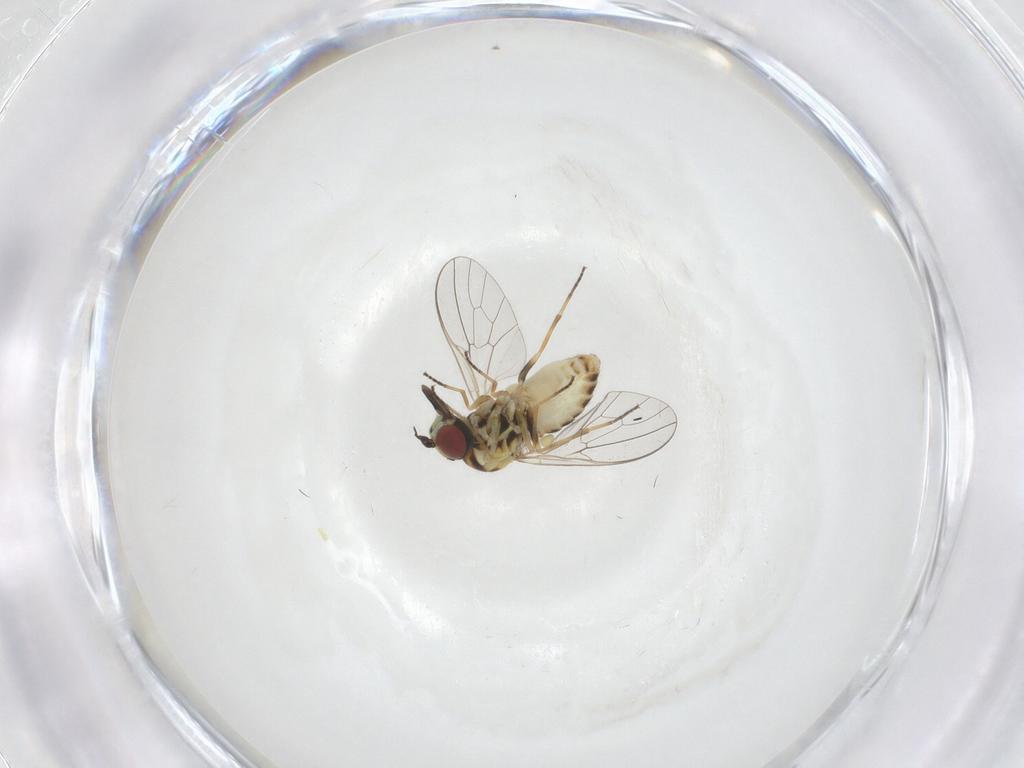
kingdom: Animalia
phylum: Arthropoda
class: Insecta
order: Diptera
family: Bombyliidae
